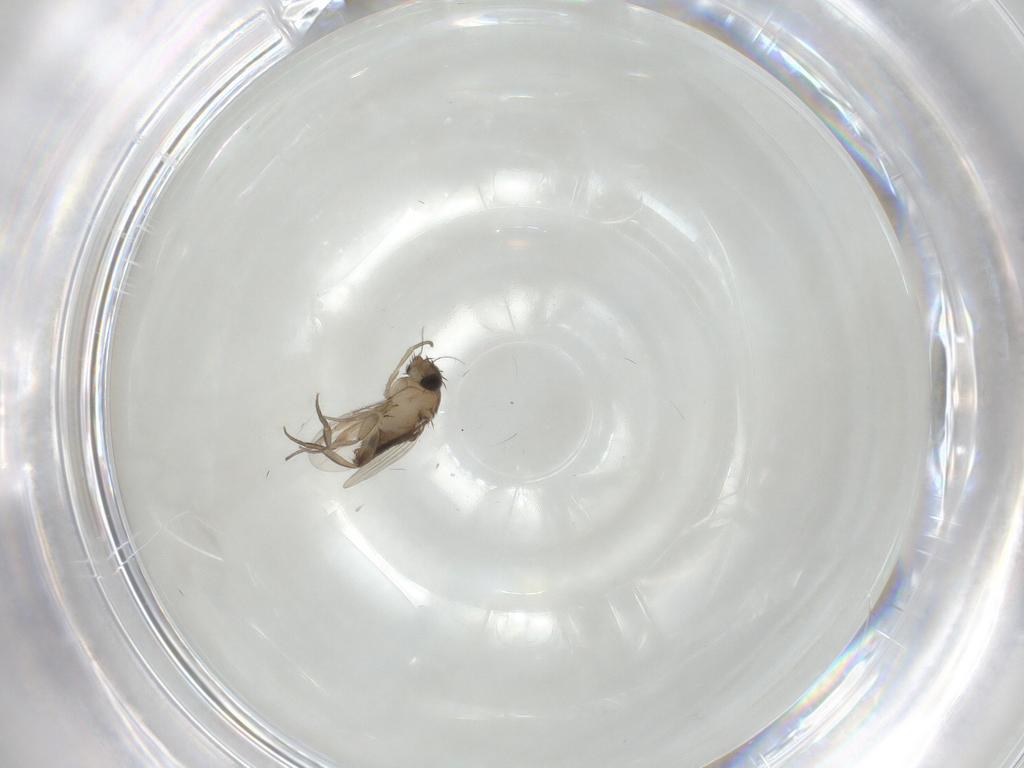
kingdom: Animalia
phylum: Arthropoda
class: Insecta
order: Diptera
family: Phoridae
